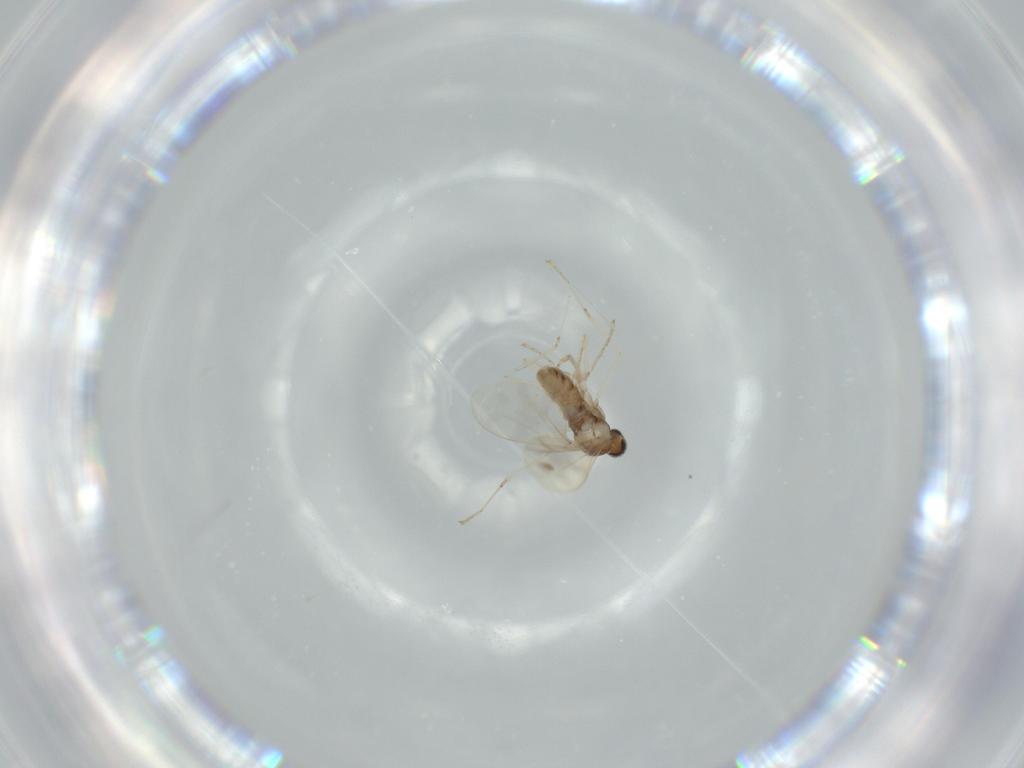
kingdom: Animalia
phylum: Arthropoda
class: Insecta
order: Diptera
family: Cecidomyiidae
